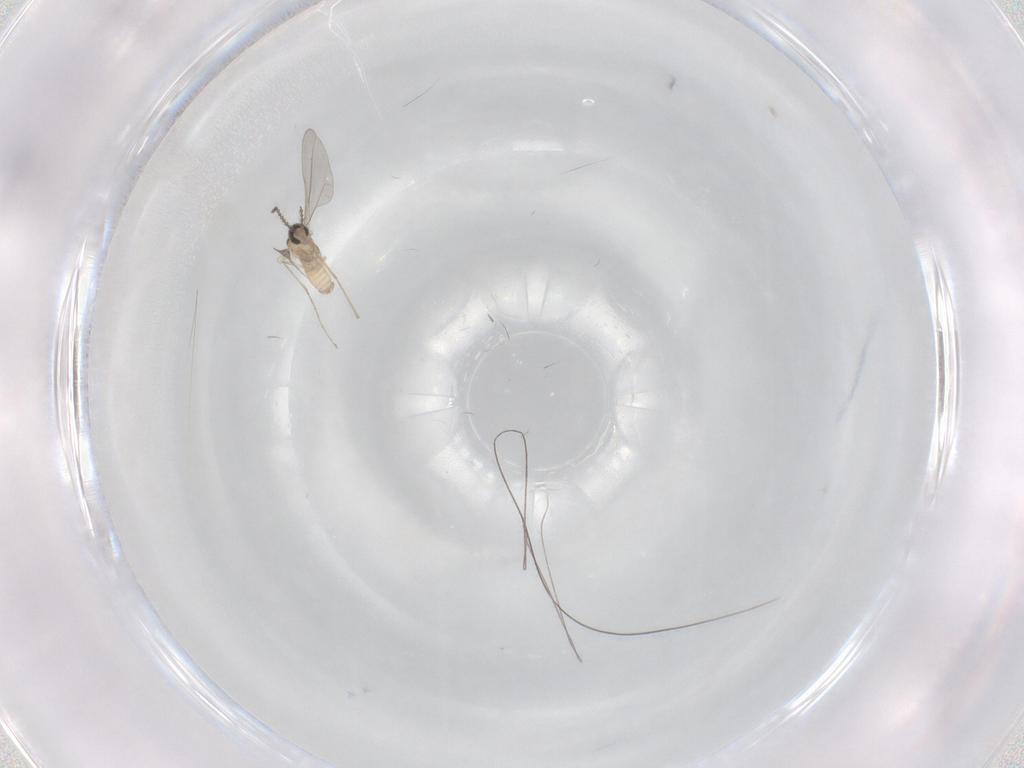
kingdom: Animalia
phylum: Arthropoda
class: Insecta
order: Diptera
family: Cecidomyiidae
